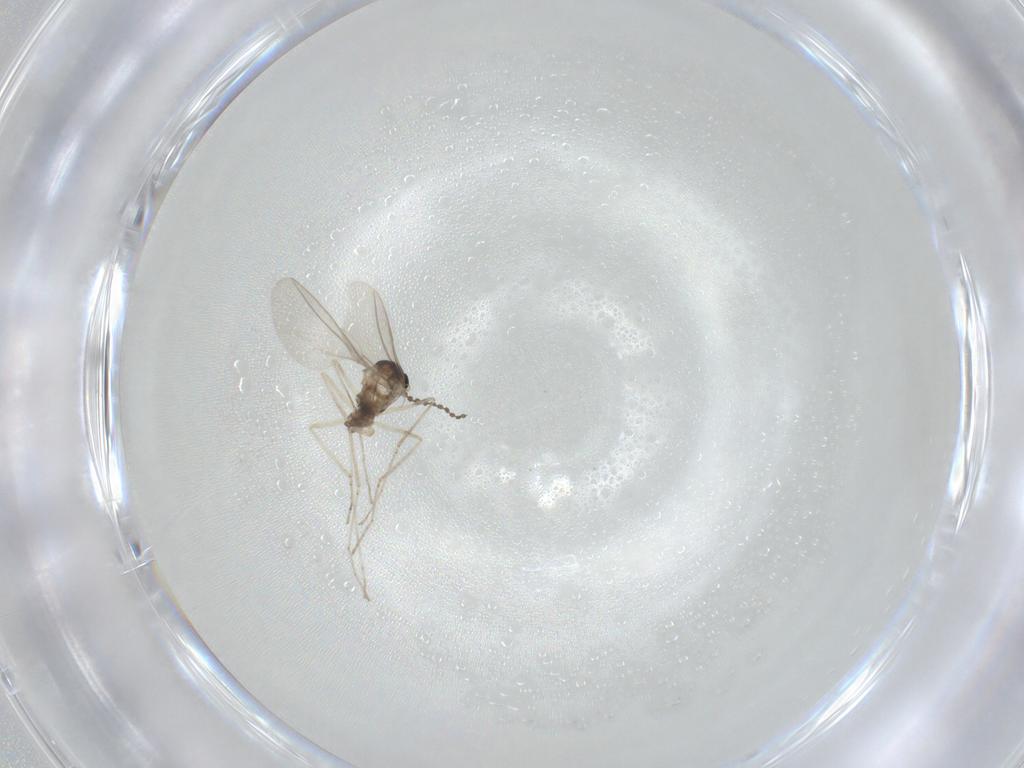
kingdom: Animalia
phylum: Arthropoda
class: Insecta
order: Diptera
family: Cecidomyiidae
